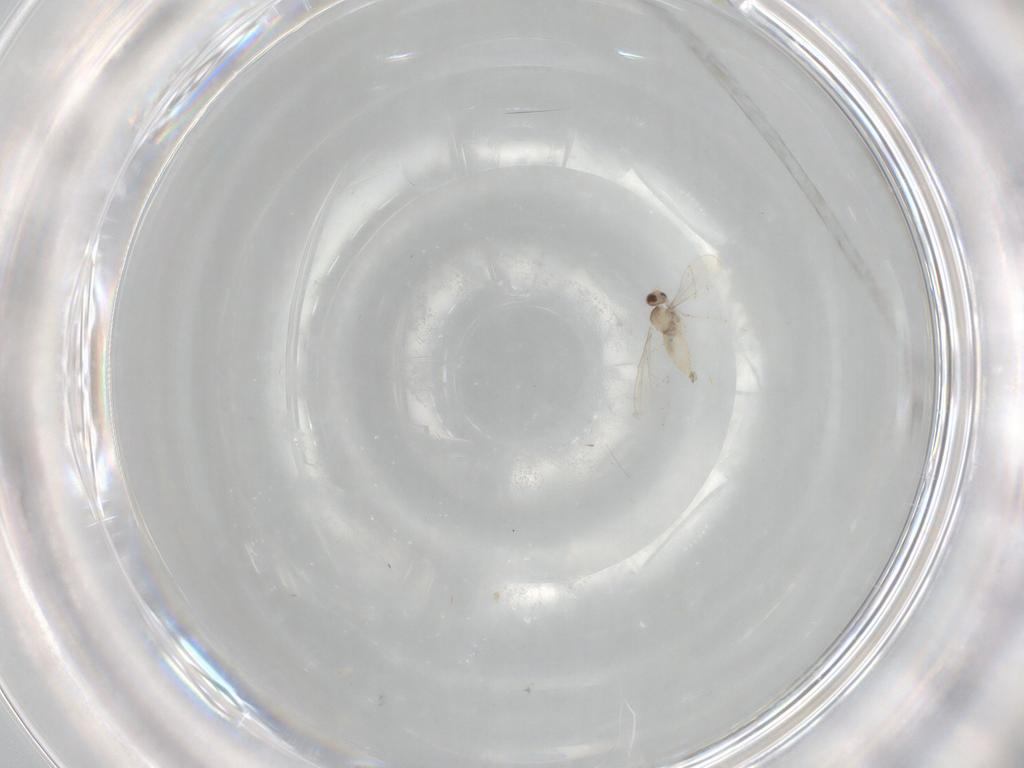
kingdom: Animalia
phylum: Arthropoda
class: Insecta
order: Diptera
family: Cecidomyiidae
